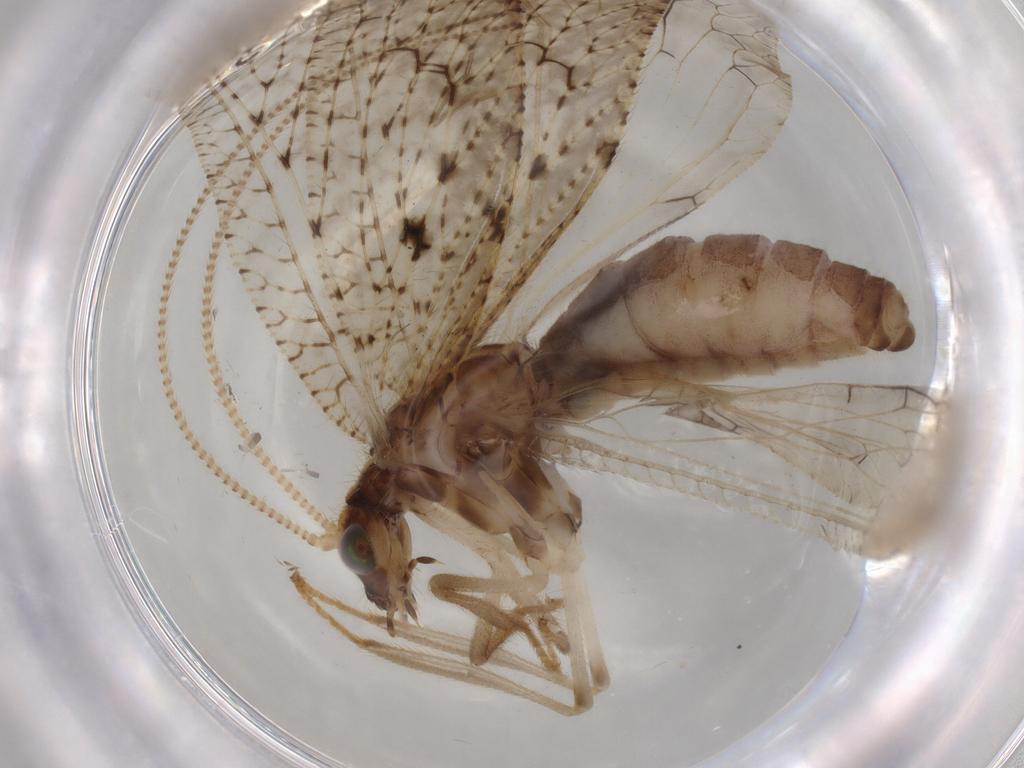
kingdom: Animalia
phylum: Arthropoda
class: Insecta
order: Neuroptera
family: Hemerobiidae
